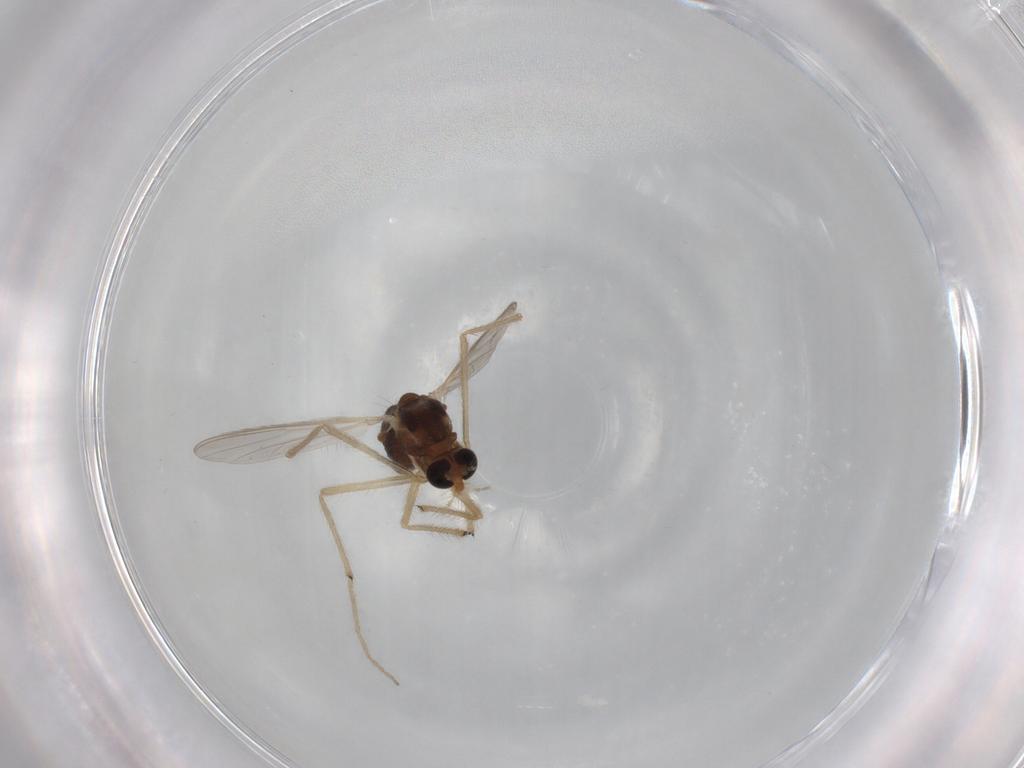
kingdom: Animalia
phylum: Arthropoda
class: Insecta
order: Diptera
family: Chironomidae
